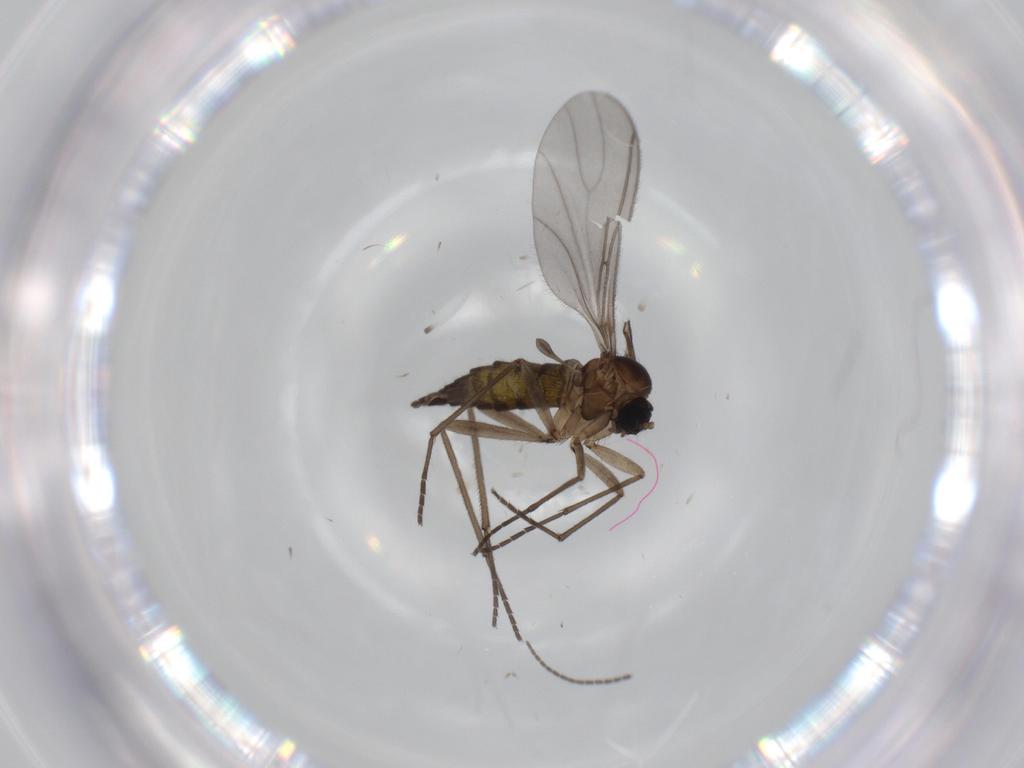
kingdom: Animalia
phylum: Arthropoda
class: Insecta
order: Diptera
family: Sciaridae
